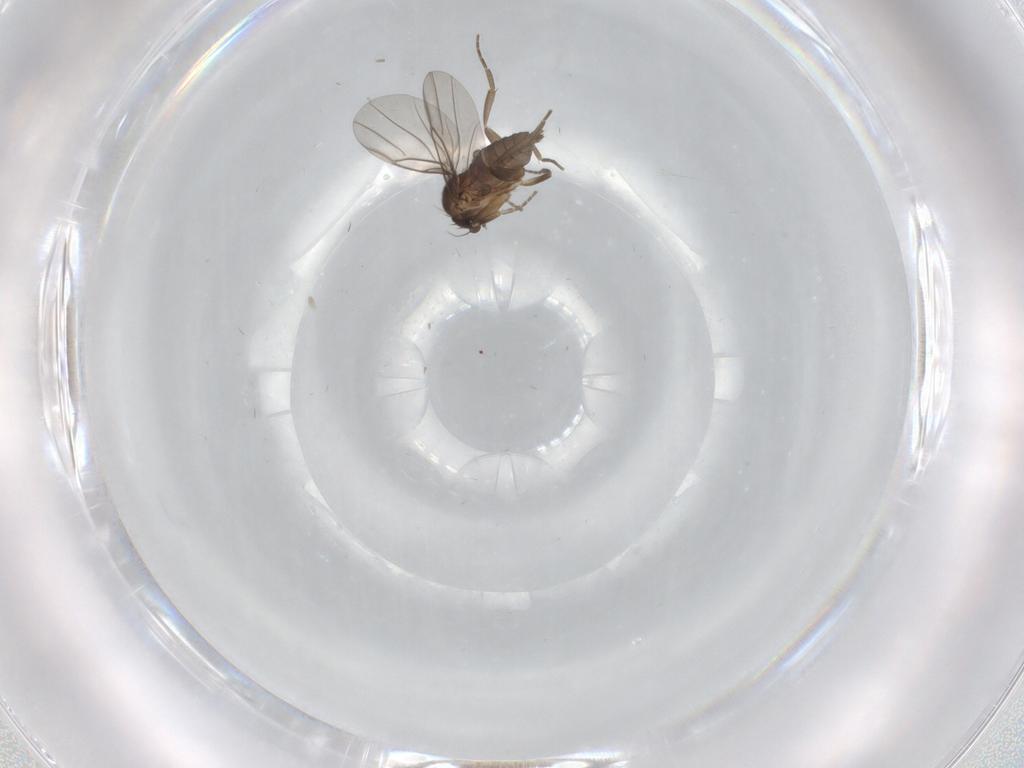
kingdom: Animalia
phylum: Arthropoda
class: Insecta
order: Diptera
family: Phoridae
